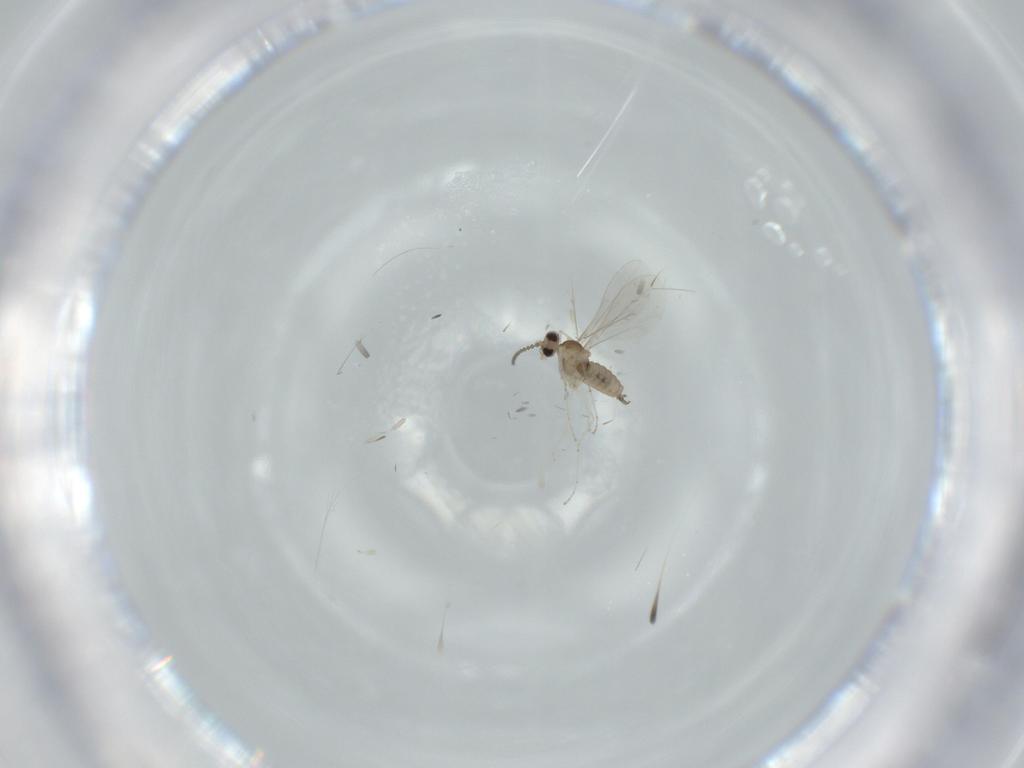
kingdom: Animalia
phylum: Arthropoda
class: Insecta
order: Diptera
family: Cecidomyiidae
